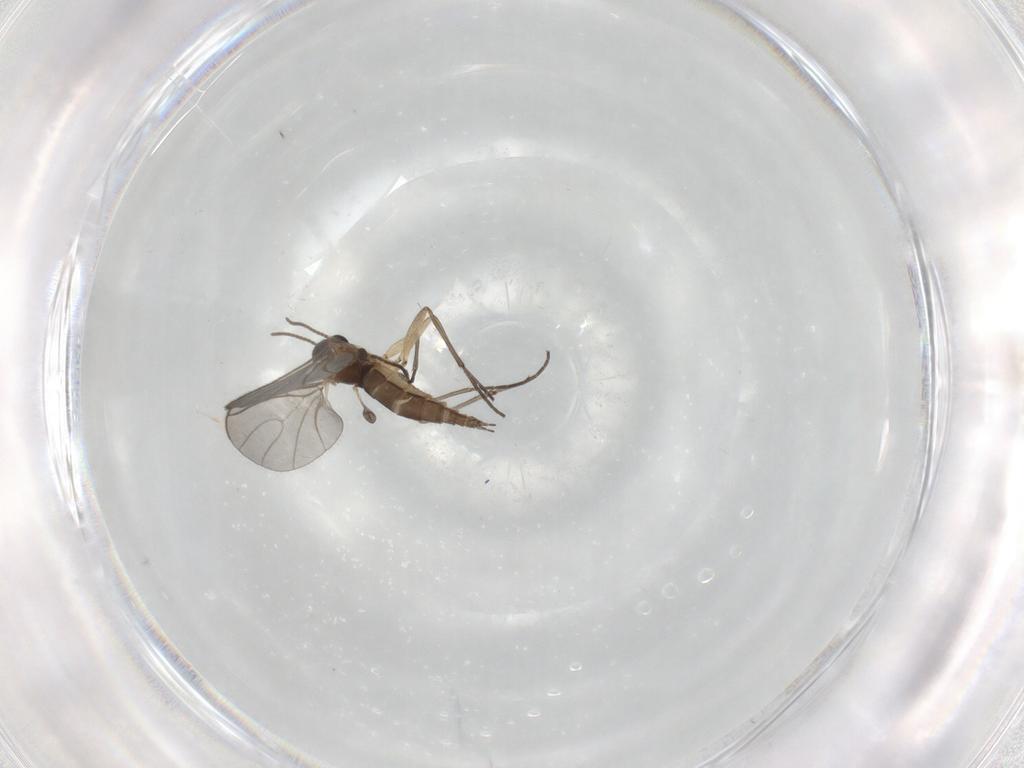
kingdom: Animalia
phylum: Arthropoda
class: Insecta
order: Diptera
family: Sciaridae
